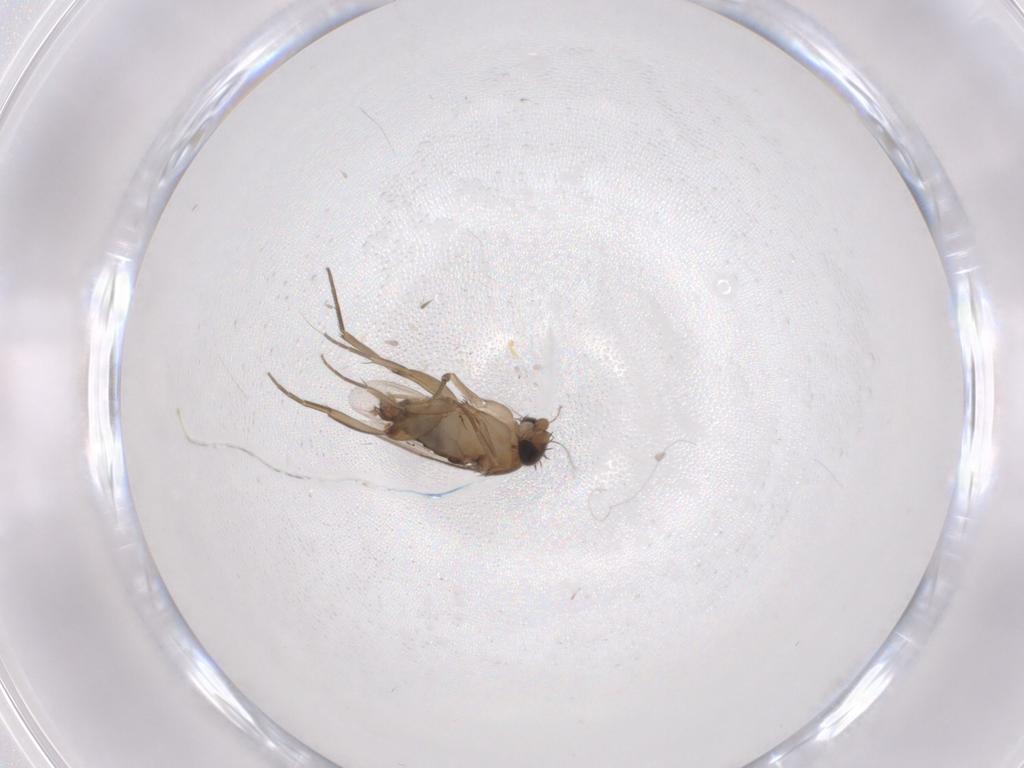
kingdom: Animalia
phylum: Arthropoda
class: Insecta
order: Diptera
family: Phoridae
